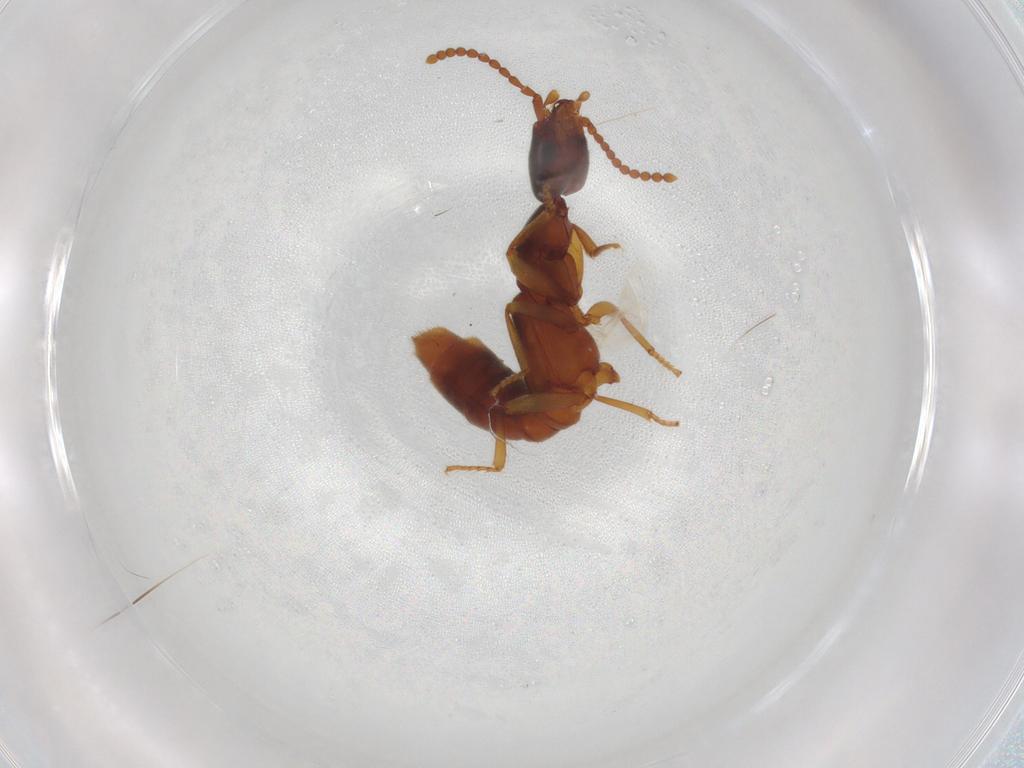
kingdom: Animalia
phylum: Arthropoda
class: Insecta
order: Coleoptera
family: Staphylinidae
